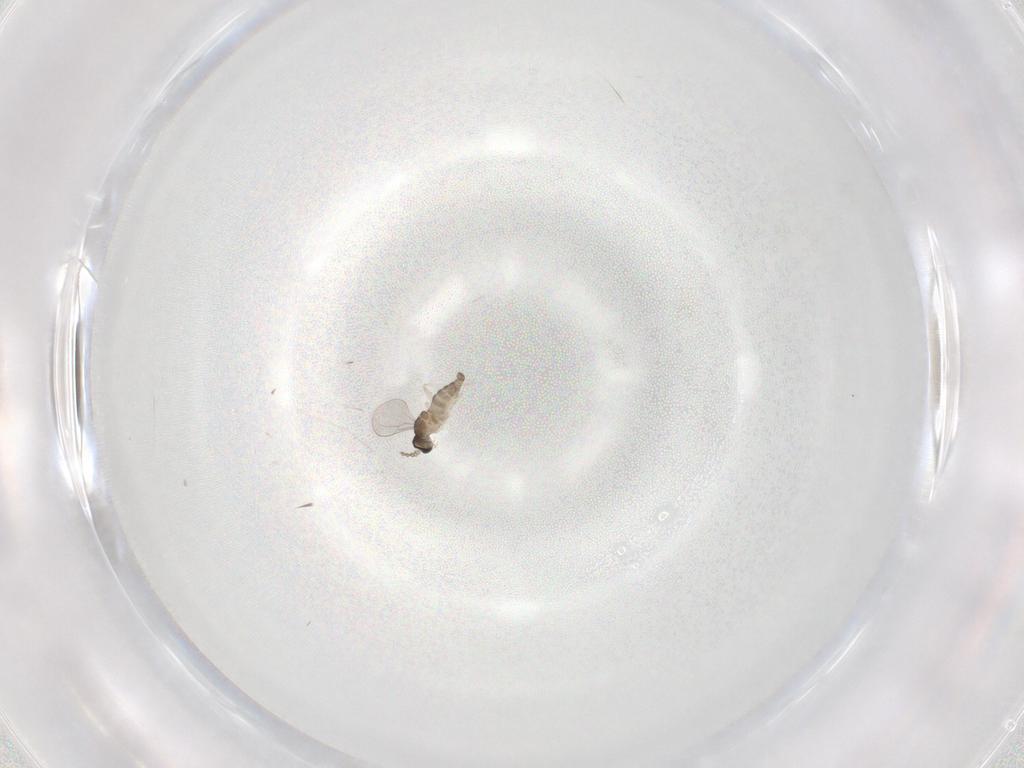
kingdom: Animalia
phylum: Arthropoda
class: Insecta
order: Diptera
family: Cecidomyiidae
